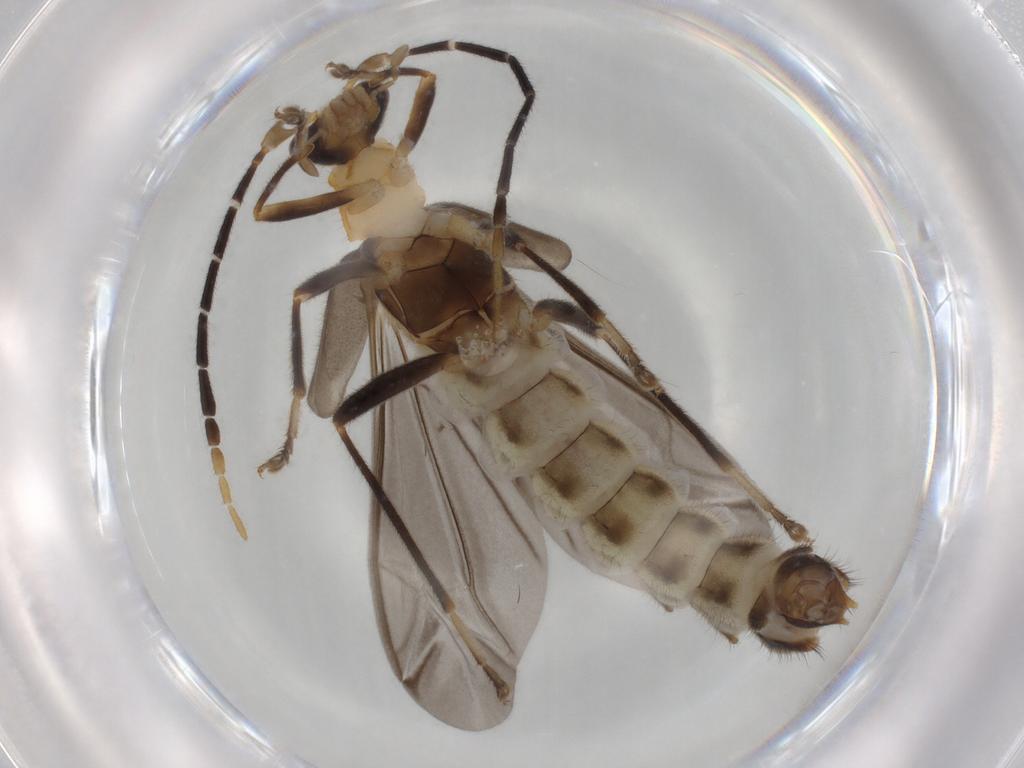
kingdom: Animalia
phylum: Arthropoda
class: Insecta
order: Coleoptera
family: Cantharidae
